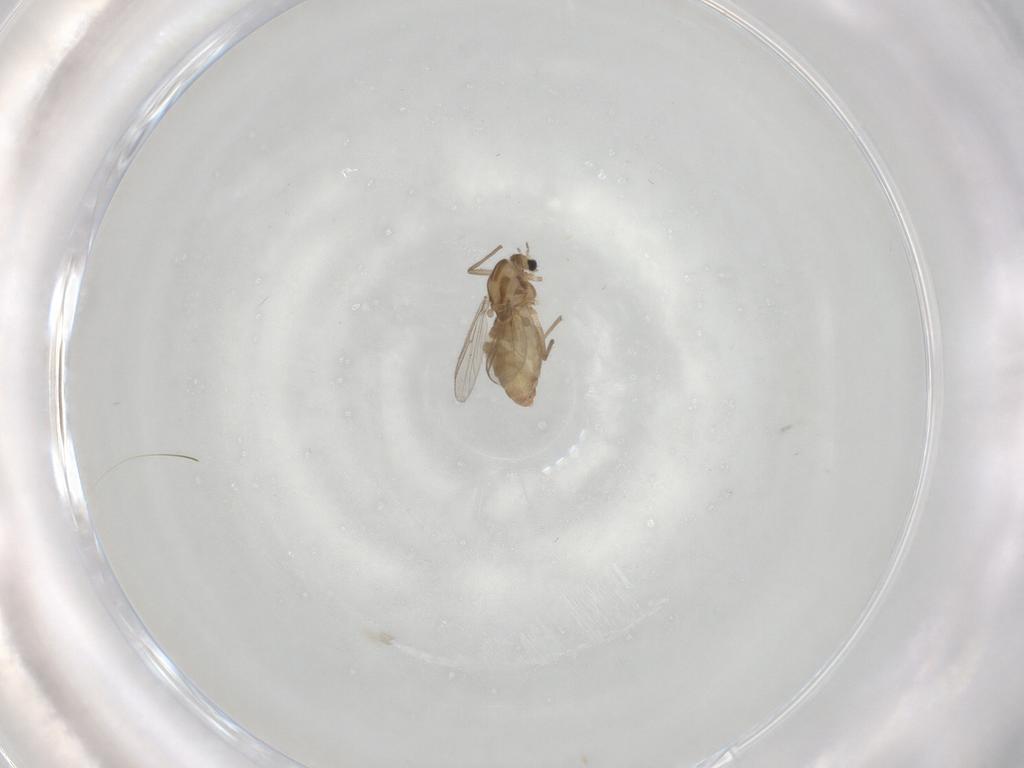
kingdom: Animalia
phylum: Arthropoda
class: Insecta
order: Diptera
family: Chironomidae
